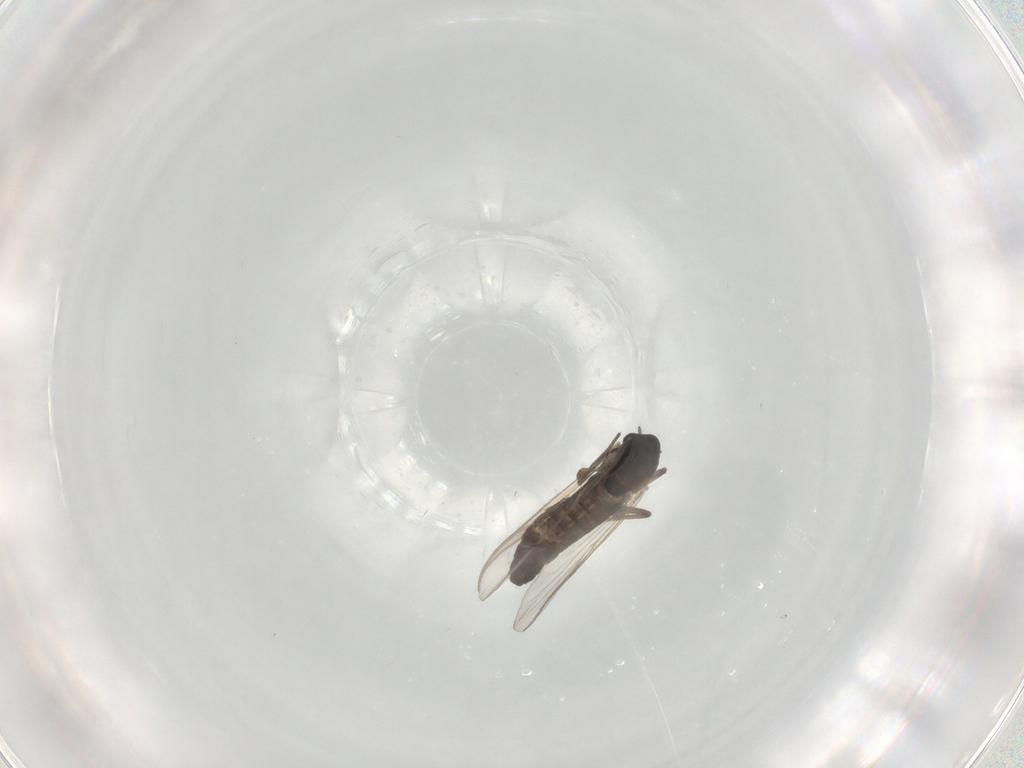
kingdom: Animalia
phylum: Arthropoda
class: Insecta
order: Diptera
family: Chironomidae
